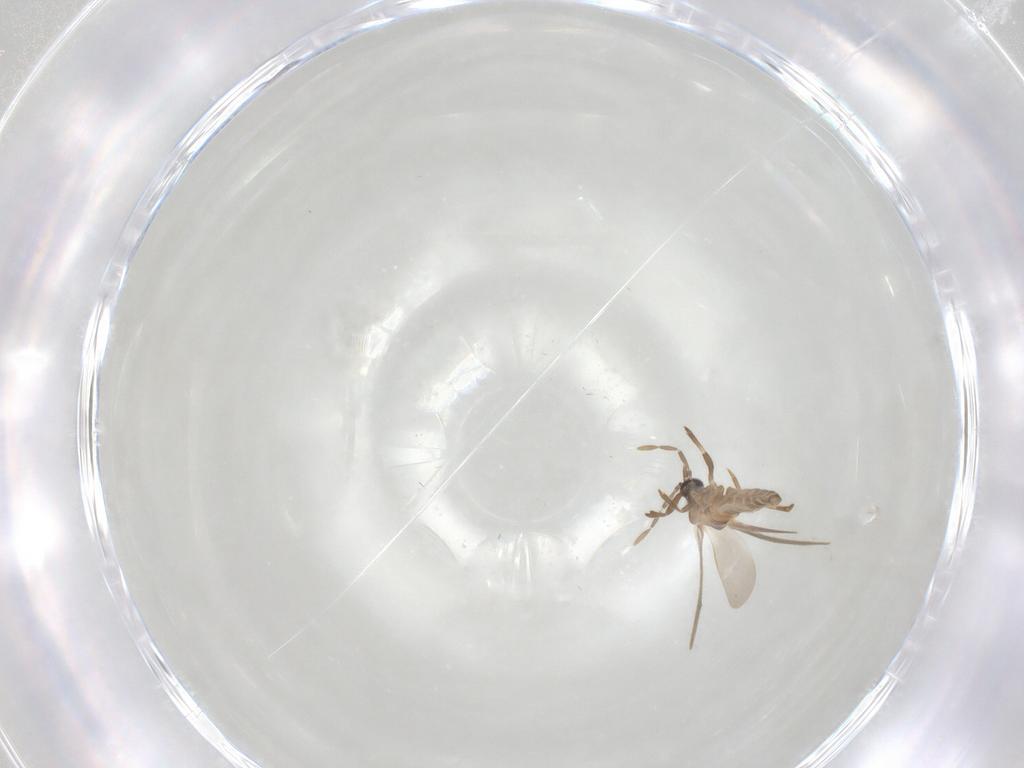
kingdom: Animalia
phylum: Arthropoda
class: Insecta
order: Hemiptera
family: Enicocephalidae
